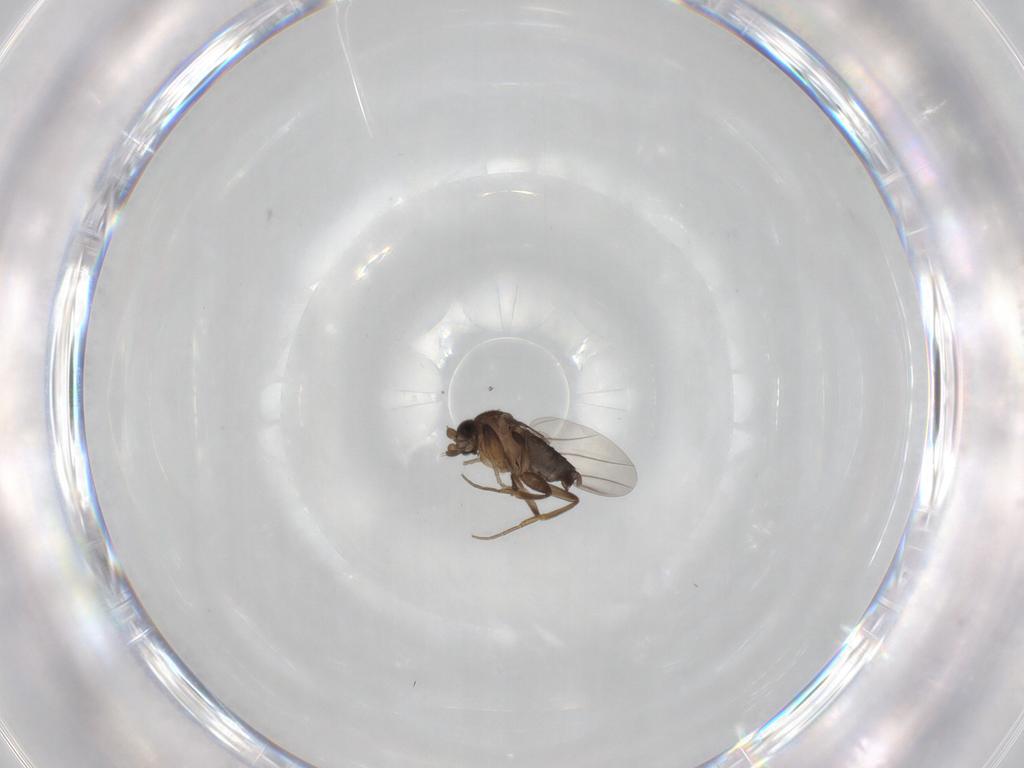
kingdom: Animalia
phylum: Arthropoda
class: Insecta
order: Diptera
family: Phoridae
